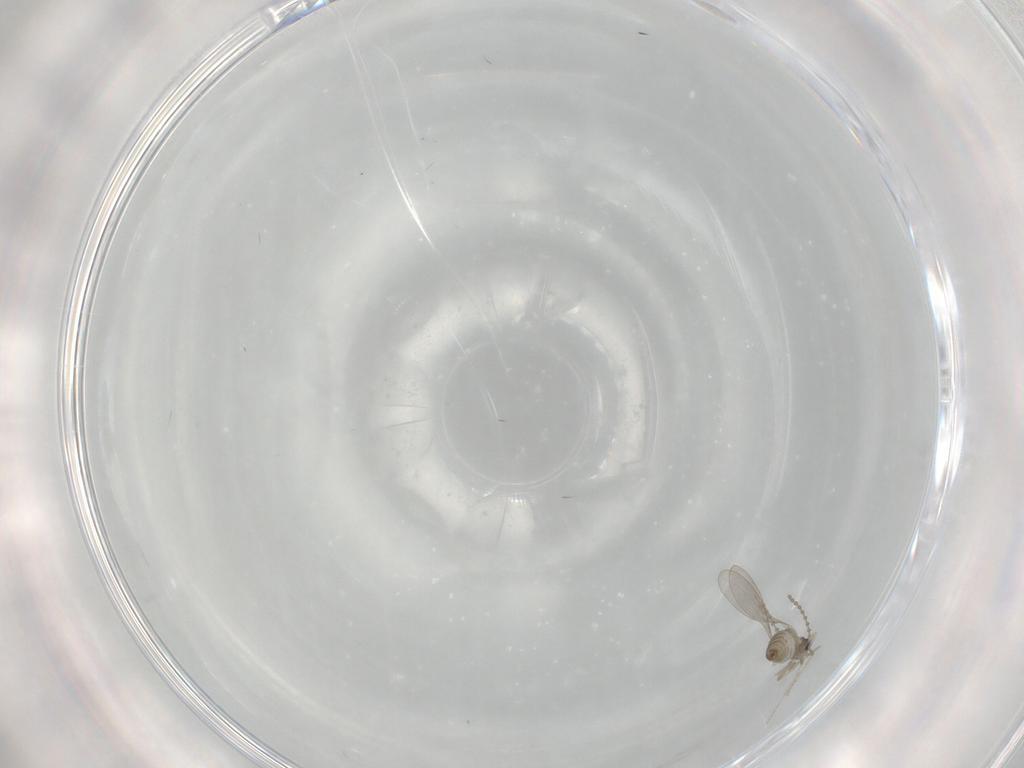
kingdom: Animalia
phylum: Arthropoda
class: Insecta
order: Diptera
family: Cecidomyiidae
